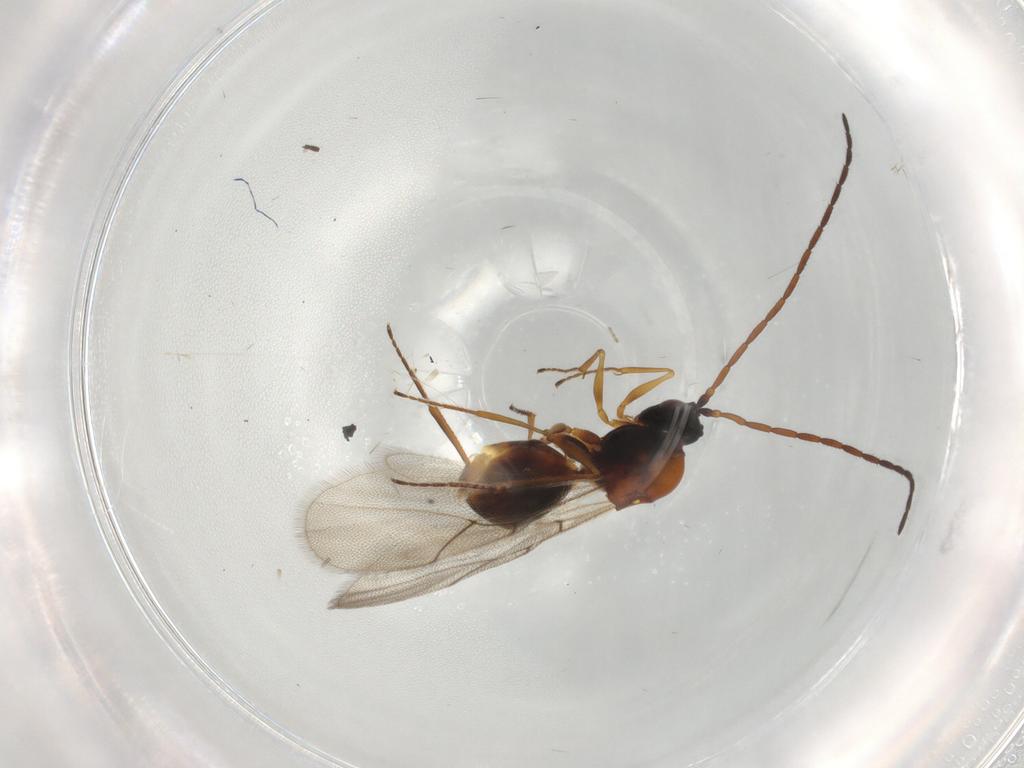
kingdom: Animalia
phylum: Arthropoda
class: Insecta
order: Hymenoptera
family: Figitidae
